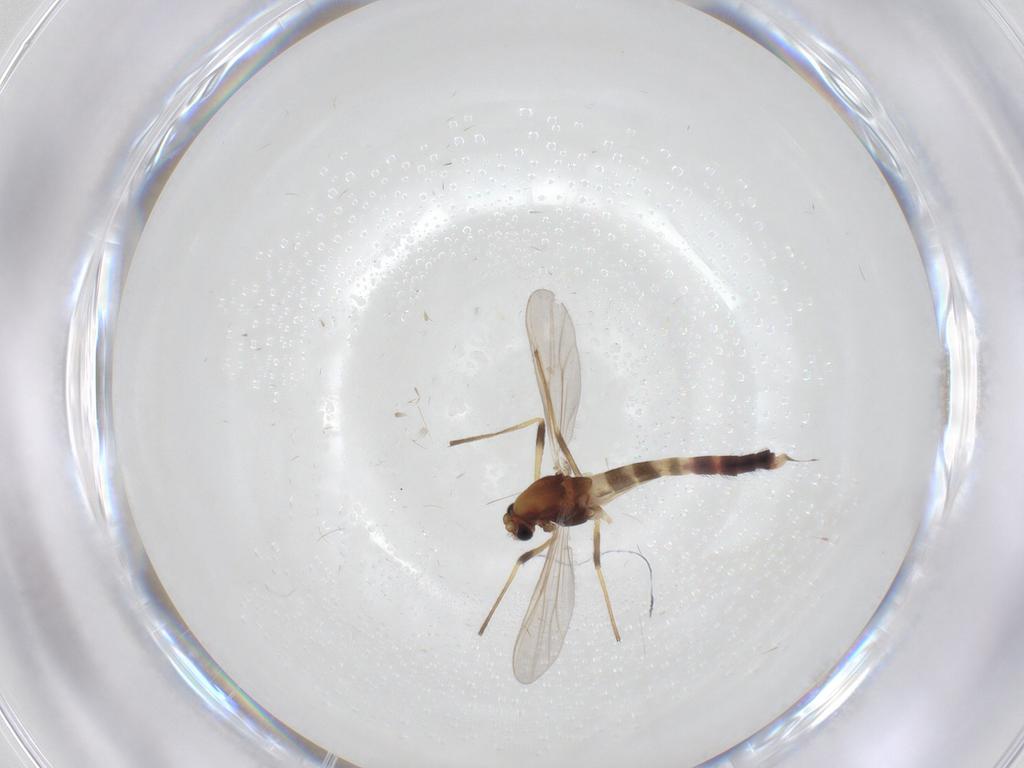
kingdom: Animalia
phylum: Arthropoda
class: Insecta
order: Diptera
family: Chironomidae
